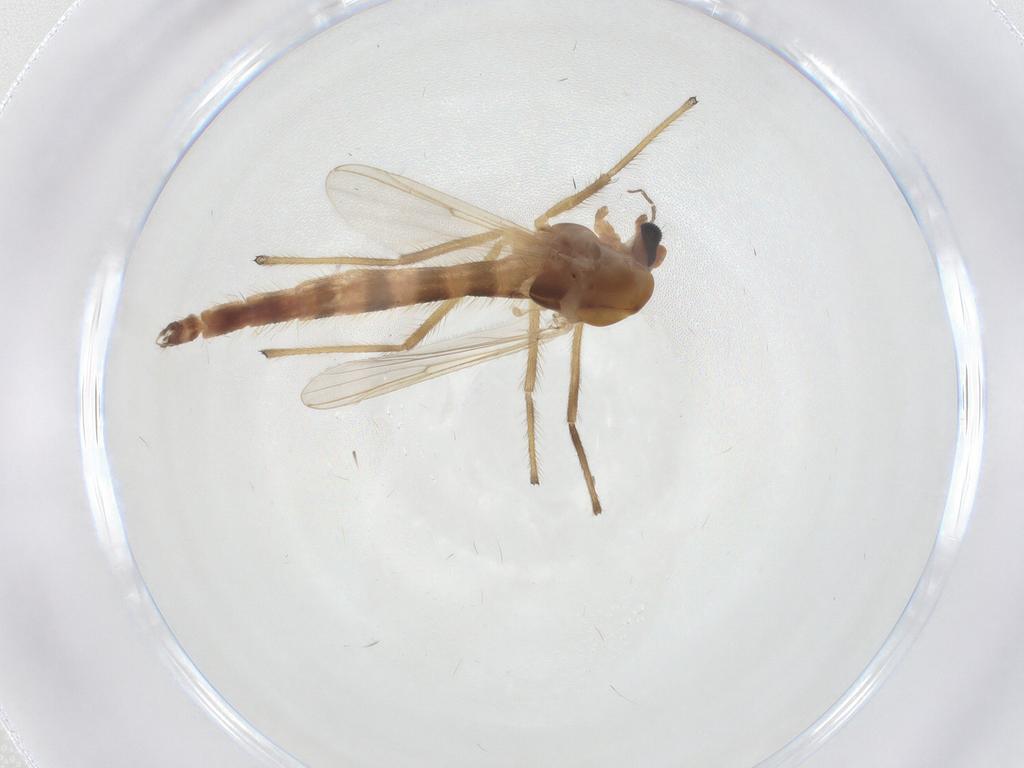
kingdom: Animalia
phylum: Arthropoda
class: Insecta
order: Diptera
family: Chironomidae
